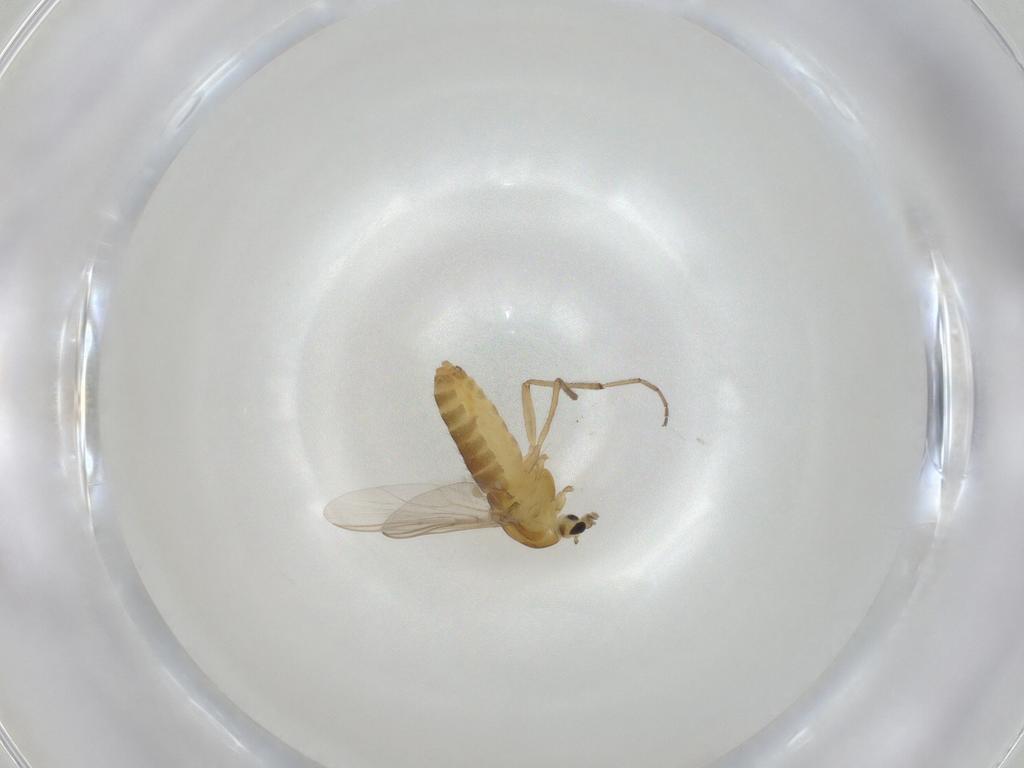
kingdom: Animalia
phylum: Arthropoda
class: Insecta
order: Diptera
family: Chironomidae
